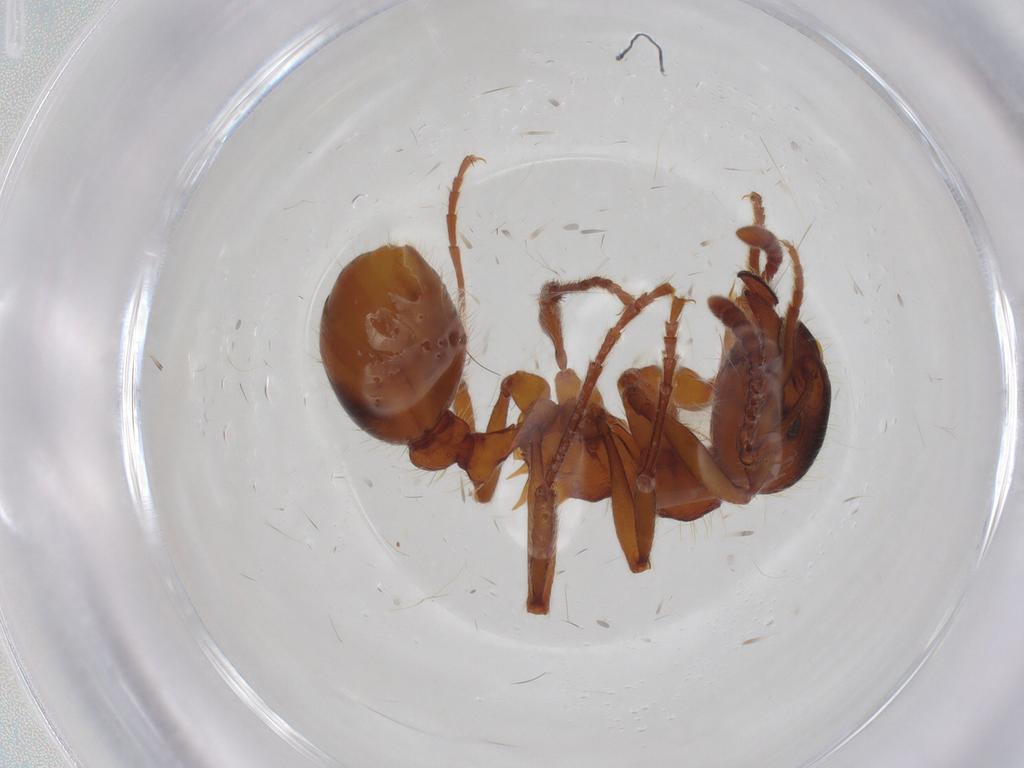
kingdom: Animalia
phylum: Arthropoda
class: Insecta
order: Hymenoptera
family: Formicidae
